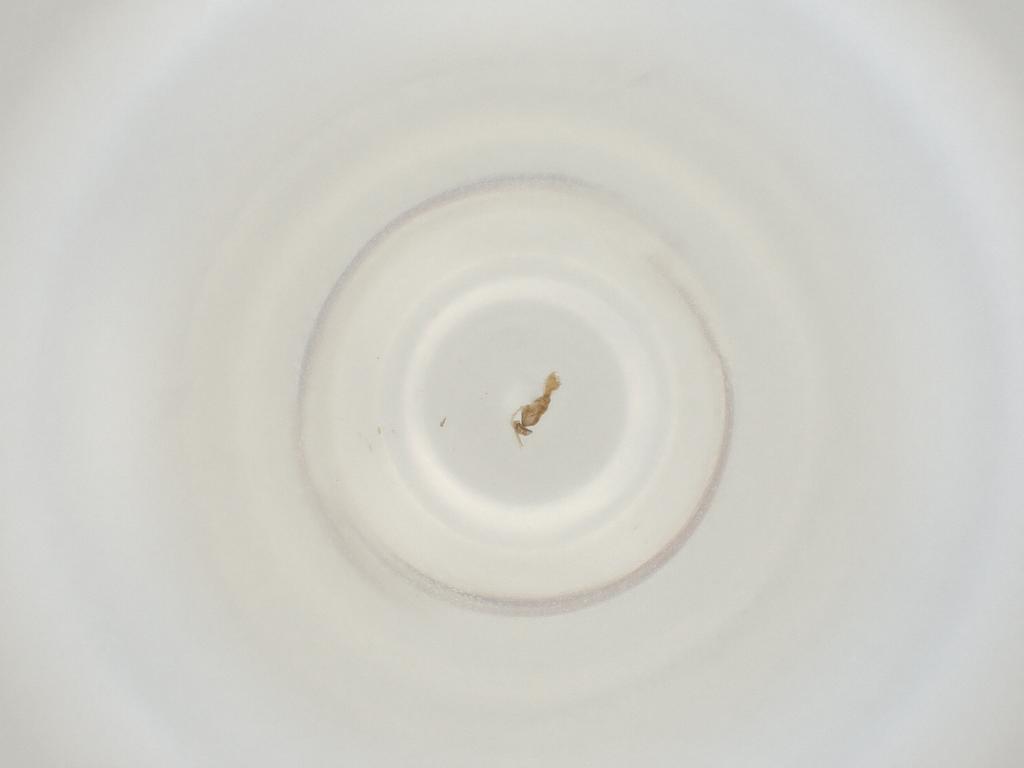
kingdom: Animalia
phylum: Arthropoda
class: Insecta
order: Diptera
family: Cecidomyiidae
